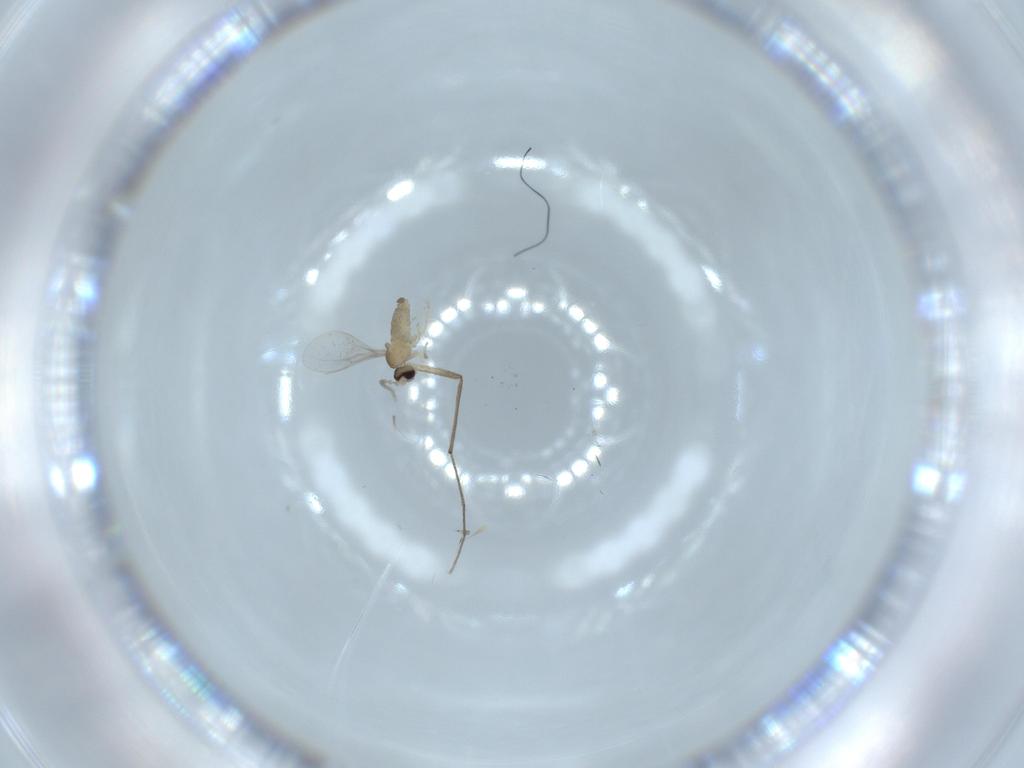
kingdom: Animalia
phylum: Arthropoda
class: Insecta
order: Diptera
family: Cecidomyiidae
